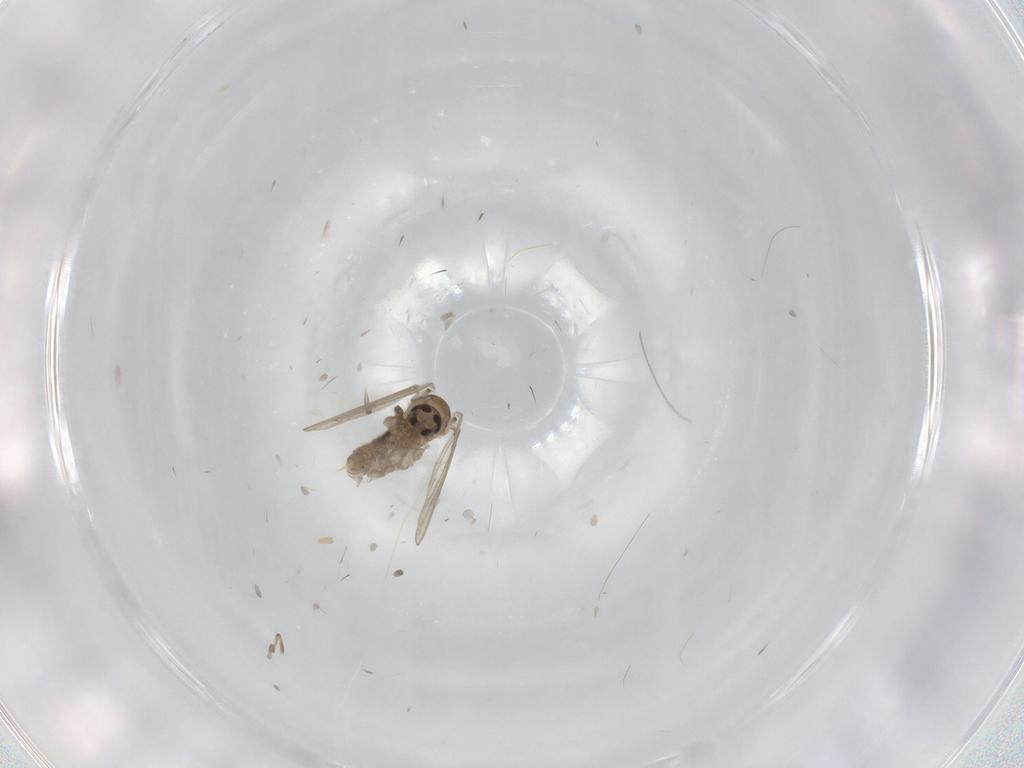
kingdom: Animalia
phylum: Arthropoda
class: Insecta
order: Diptera
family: Psychodidae
